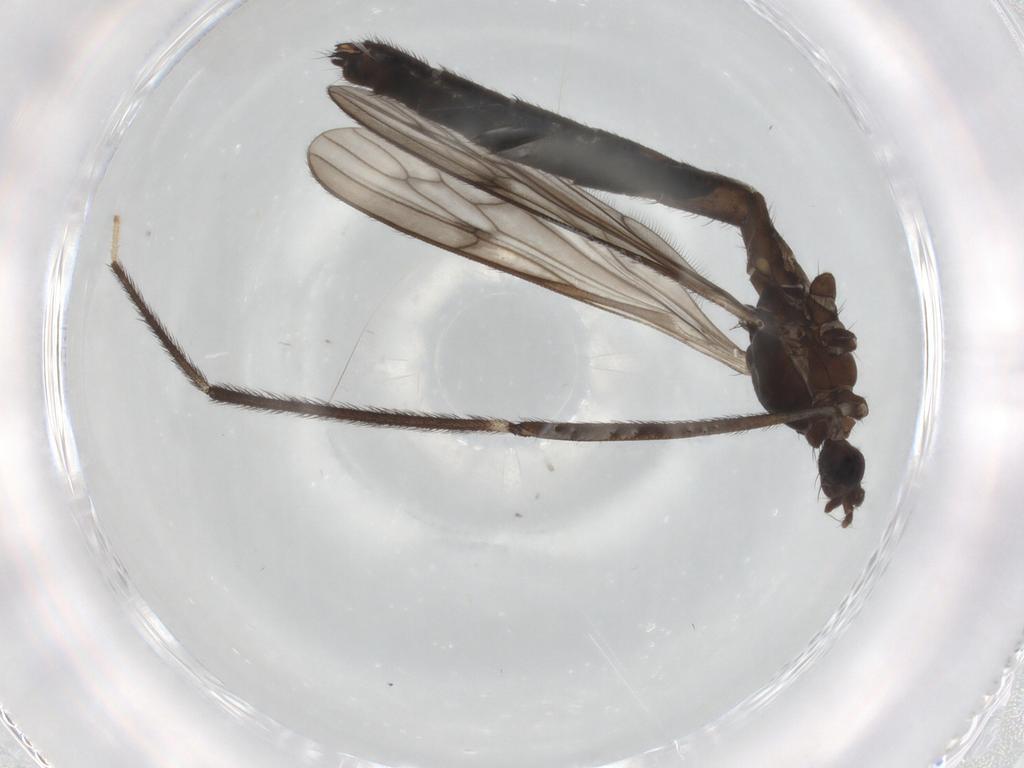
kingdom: Animalia
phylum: Arthropoda
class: Insecta
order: Diptera
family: Limoniidae
